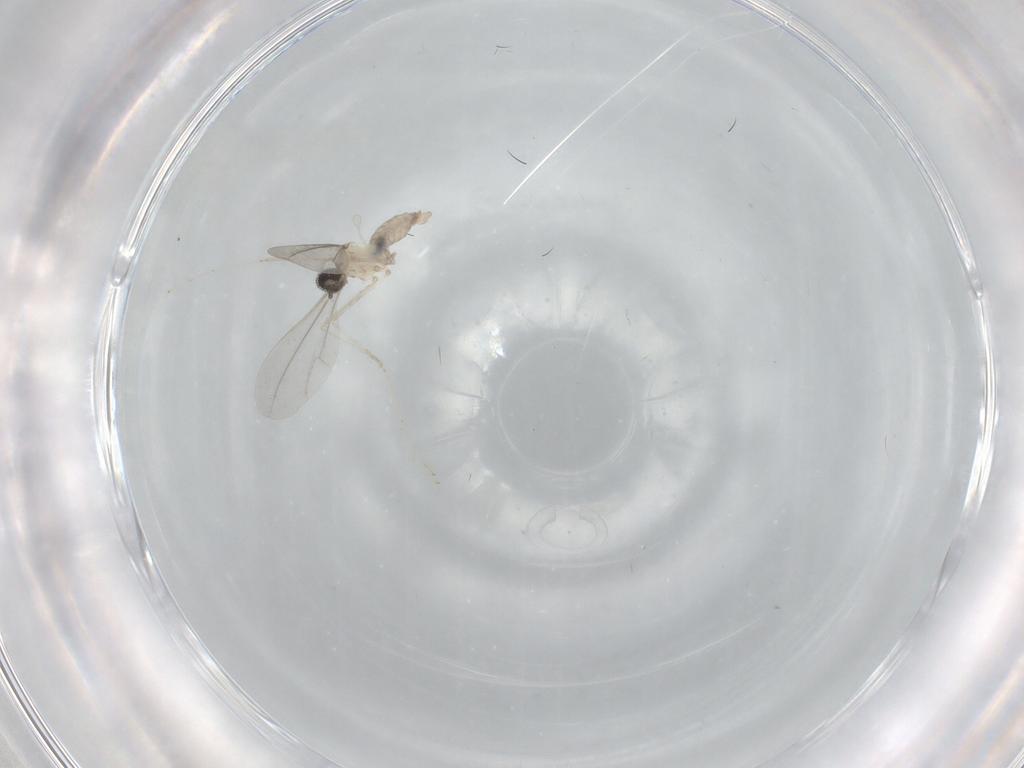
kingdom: Animalia
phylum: Arthropoda
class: Insecta
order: Diptera
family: Cecidomyiidae
